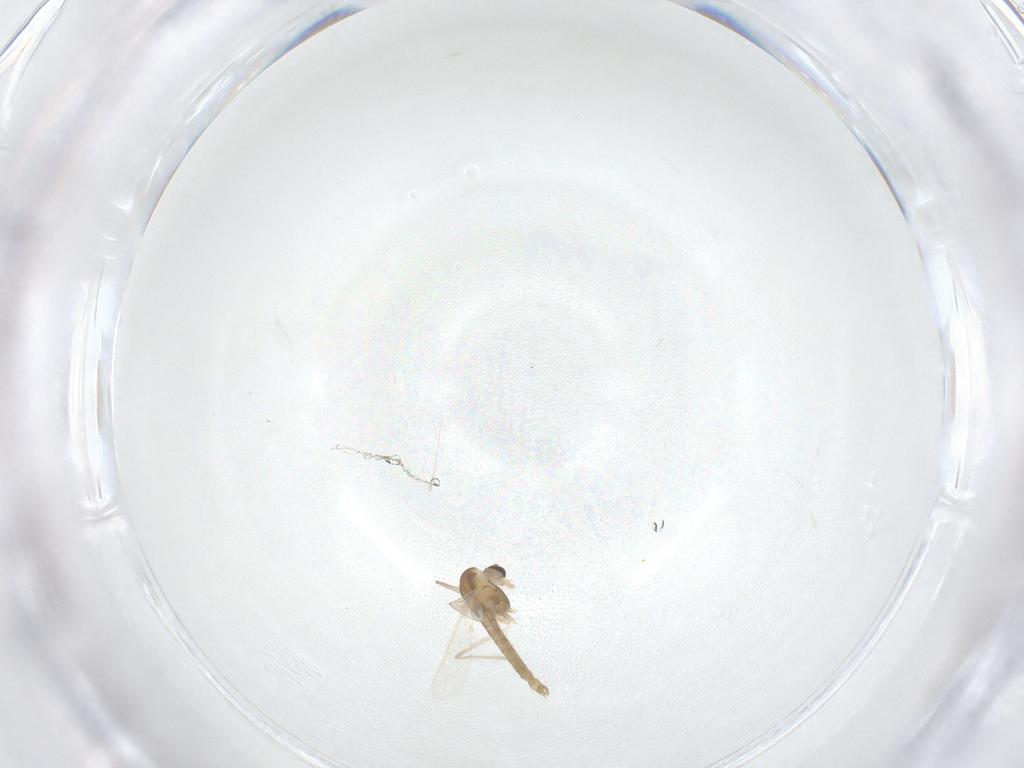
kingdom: Animalia
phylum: Arthropoda
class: Insecta
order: Diptera
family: Chironomidae
